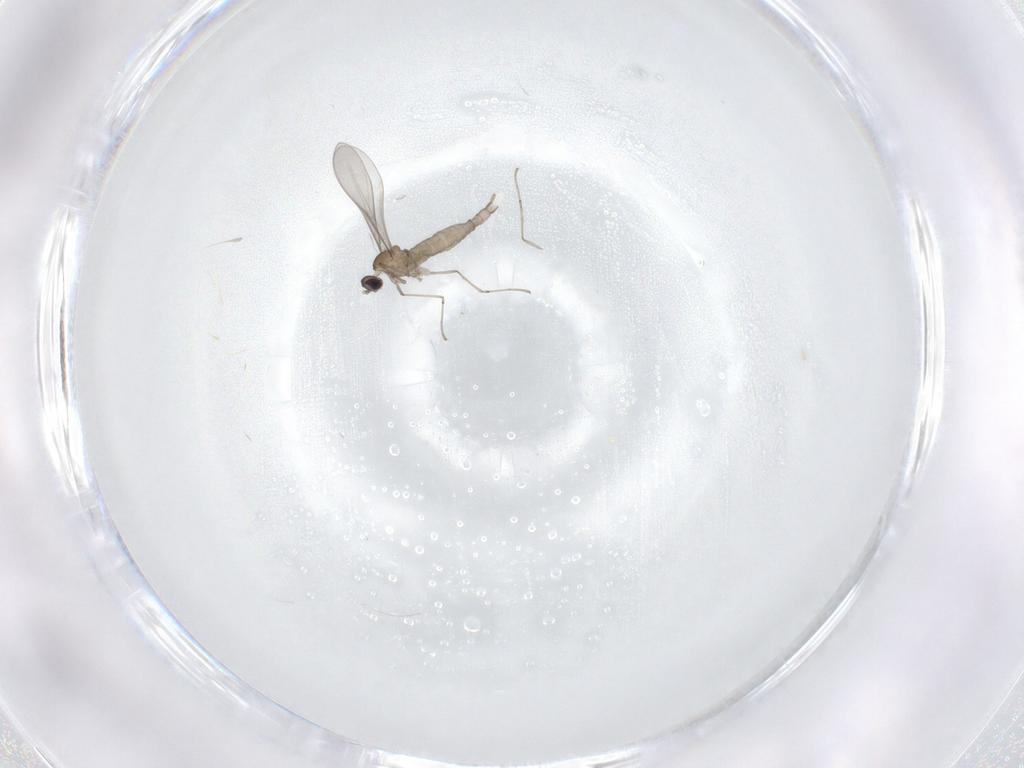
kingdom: Animalia
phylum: Arthropoda
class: Insecta
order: Diptera
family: Cecidomyiidae
